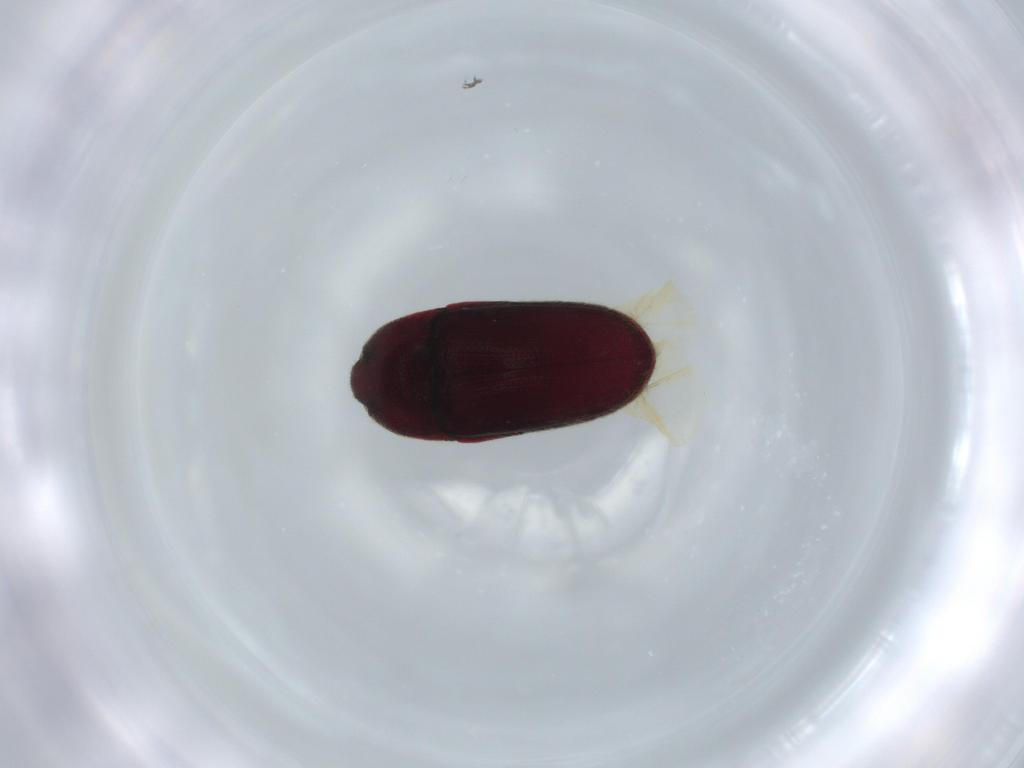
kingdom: Animalia
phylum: Arthropoda
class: Insecta
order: Coleoptera
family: Throscidae
